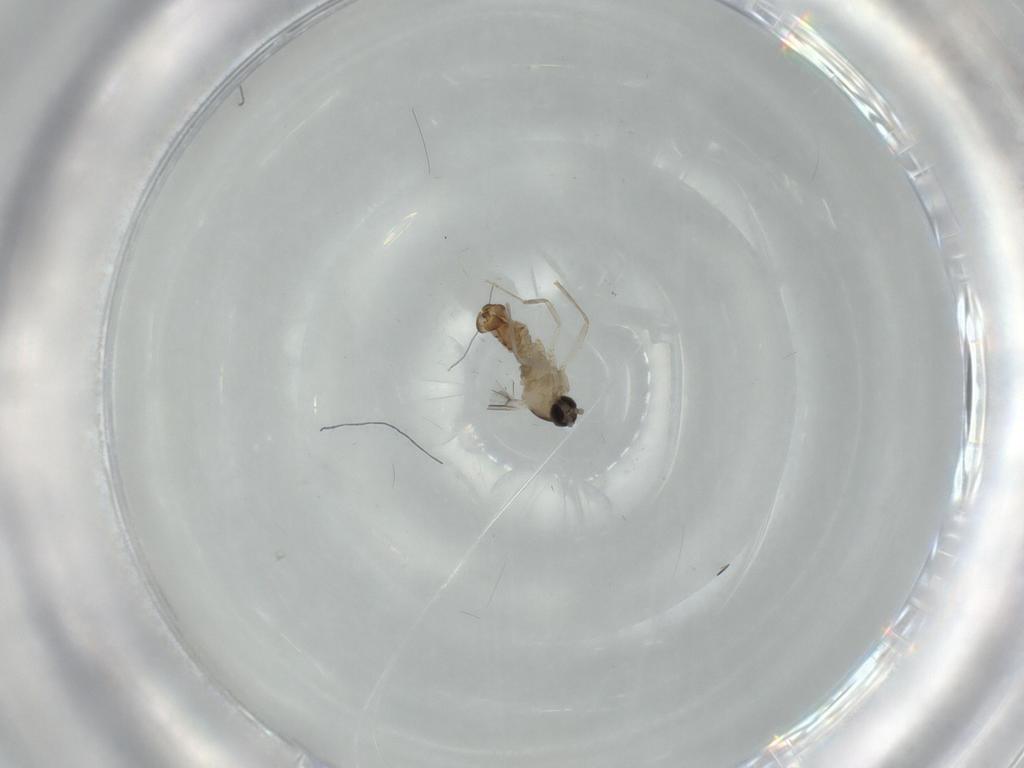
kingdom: Animalia
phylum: Arthropoda
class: Insecta
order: Diptera
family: Cecidomyiidae
